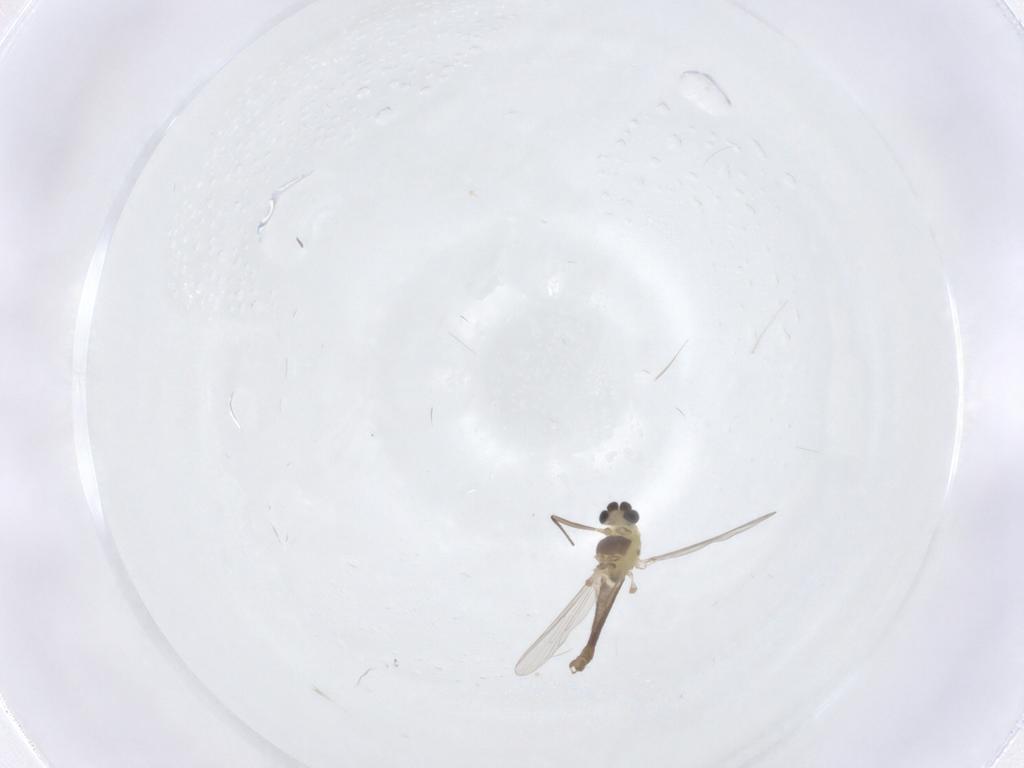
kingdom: Animalia
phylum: Arthropoda
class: Insecta
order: Diptera
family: Chironomidae
